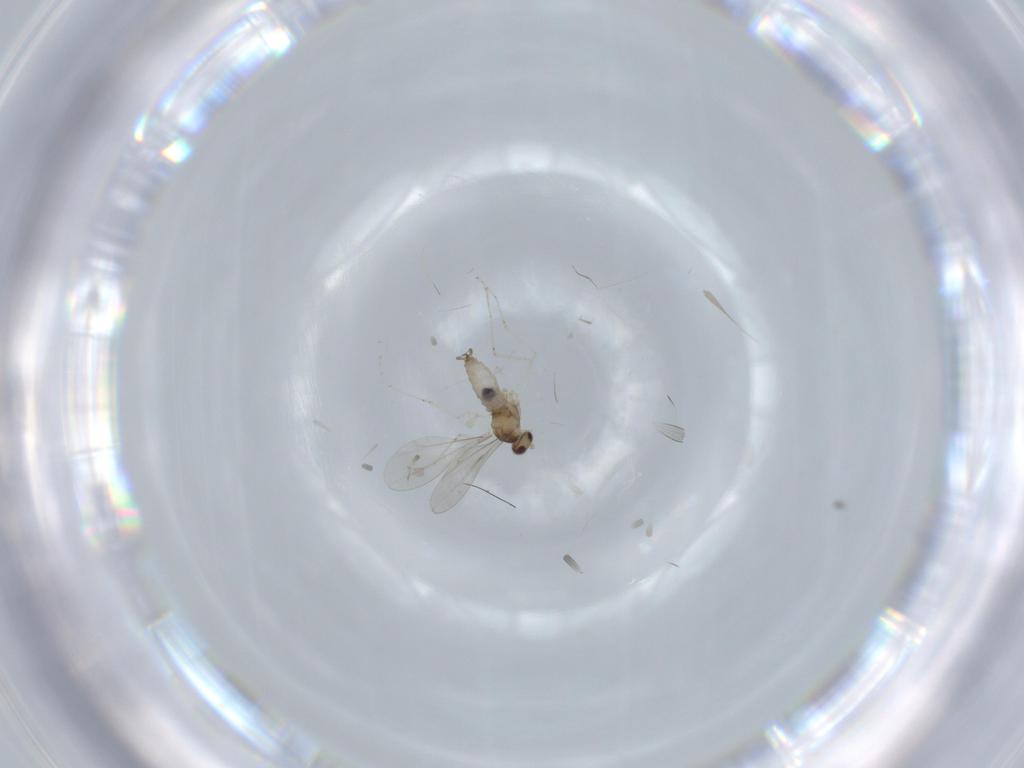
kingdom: Animalia
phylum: Arthropoda
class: Insecta
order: Diptera
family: Cecidomyiidae
